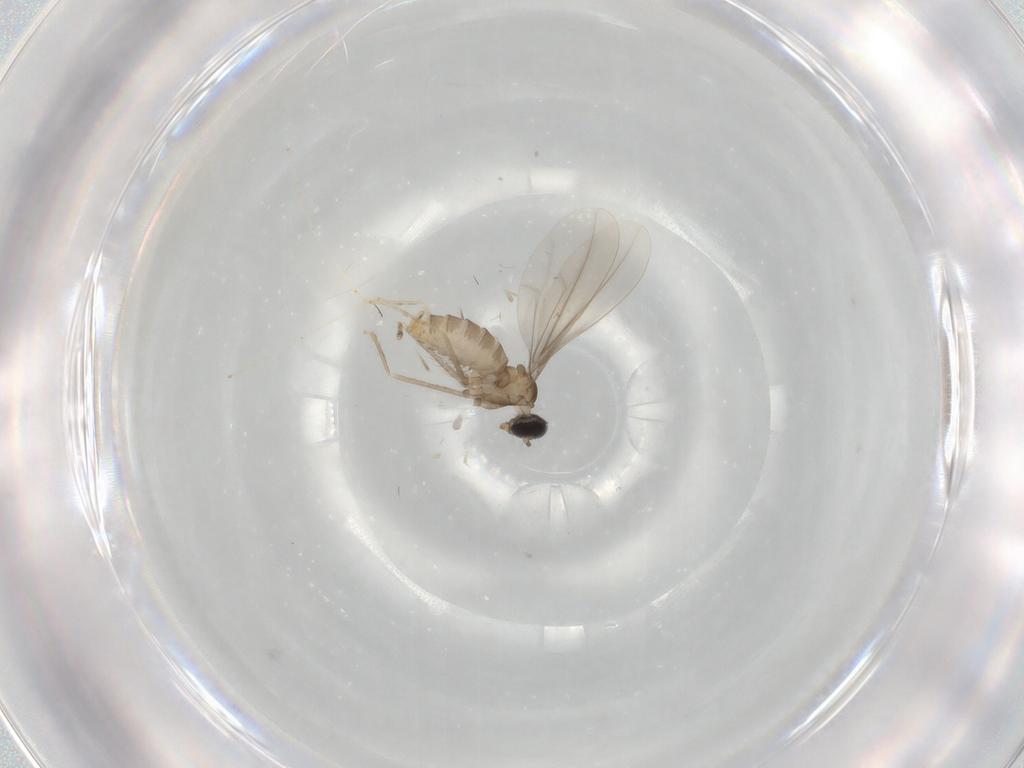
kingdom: Animalia
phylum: Arthropoda
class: Insecta
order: Diptera
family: Cecidomyiidae
